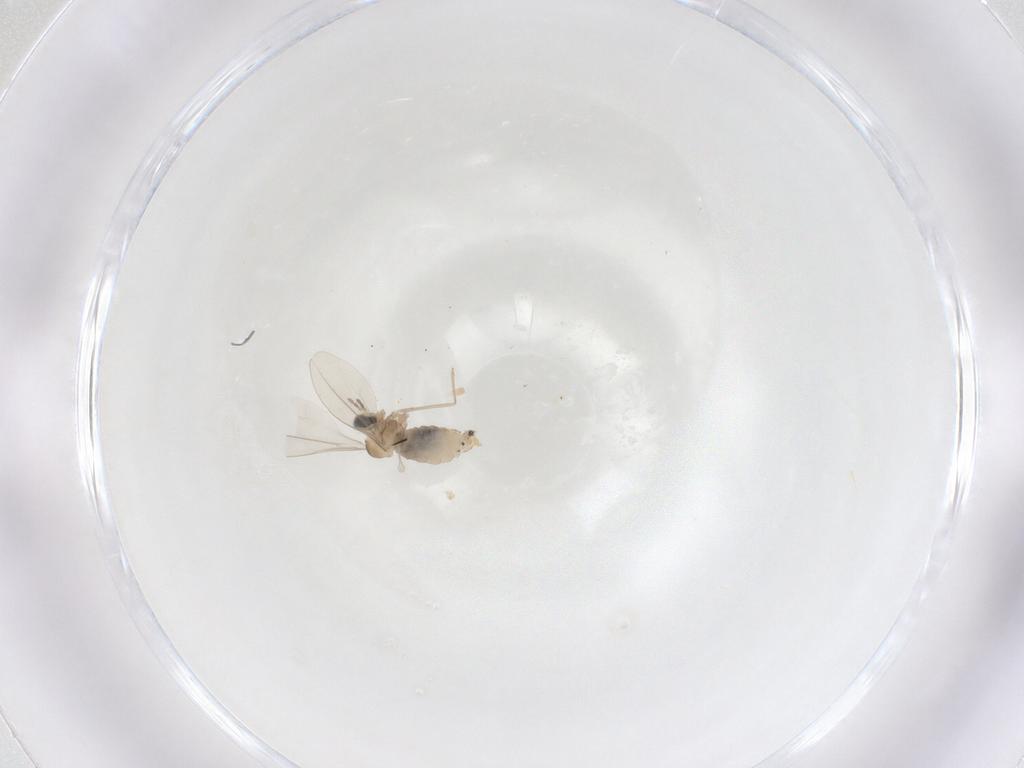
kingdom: Animalia
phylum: Arthropoda
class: Insecta
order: Diptera
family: Cecidomyiidae
